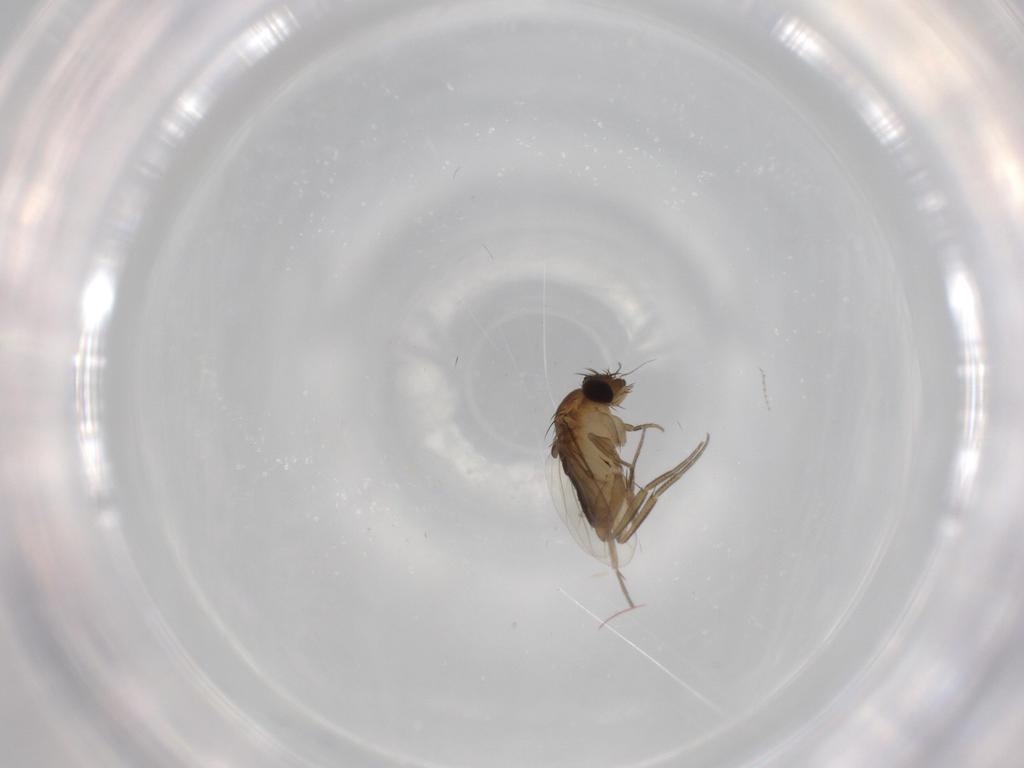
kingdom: Animalia
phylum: Arthropoda
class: Insecta
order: Diptera
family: Phoridae
